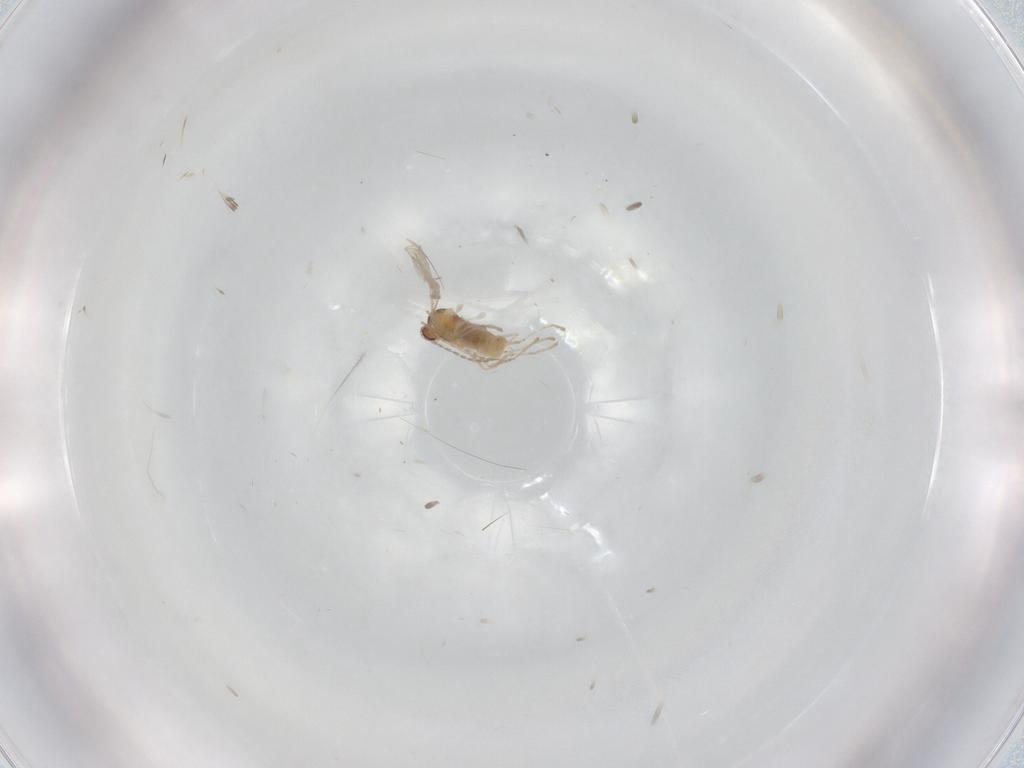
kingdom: Animalia
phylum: Arthropoda
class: Insecta
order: Diptera
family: Cecidomyiidae
